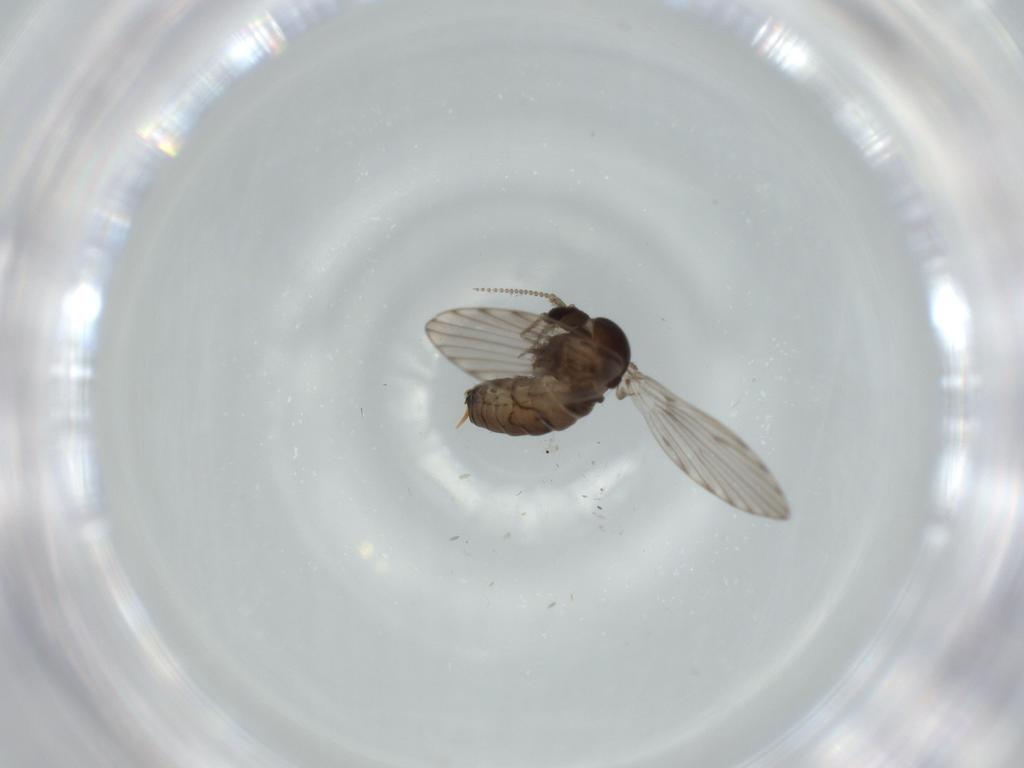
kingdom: Animalia
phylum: Arthropoda
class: Insecta
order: Diptera
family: Psychodidae
